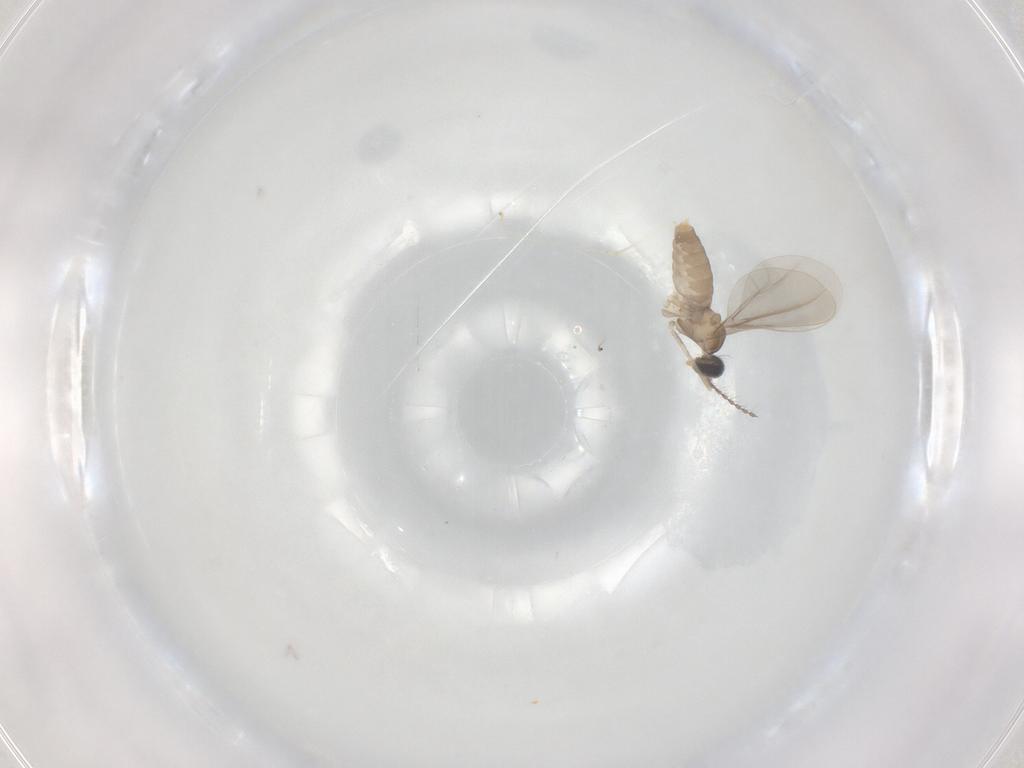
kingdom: Animalia
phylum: Arthropoda
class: Insecta
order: Diptera
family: Cecidomyiidae
